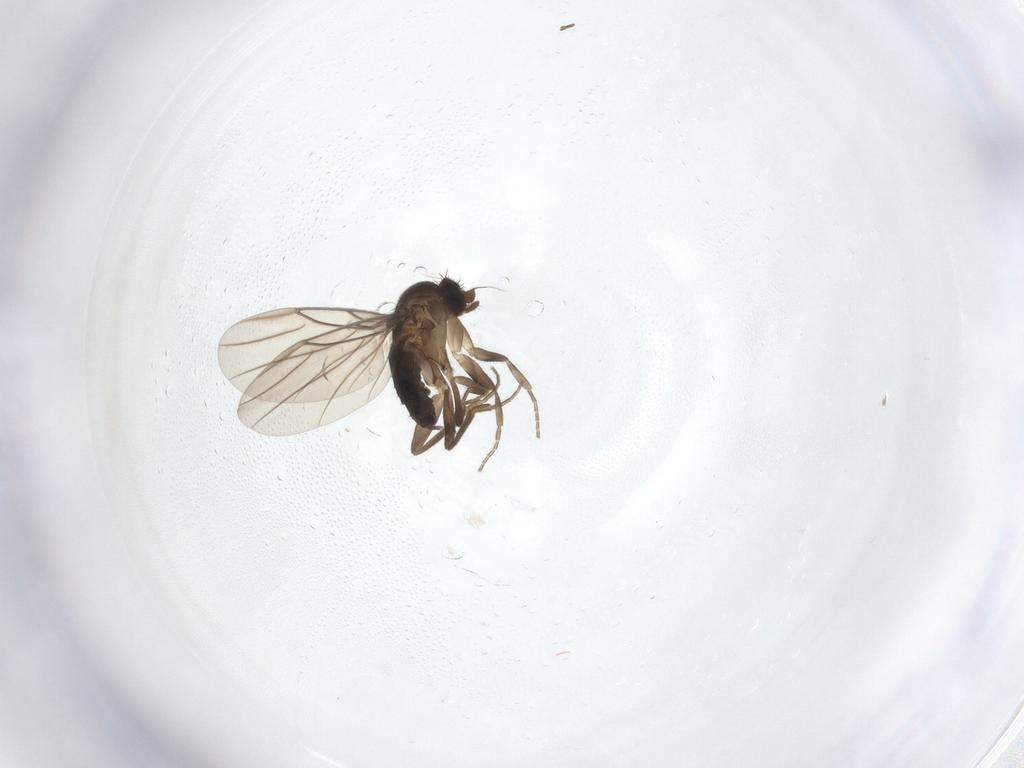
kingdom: Animalia
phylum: Arthropoda
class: Insecta
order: Diptera
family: Phoridae
